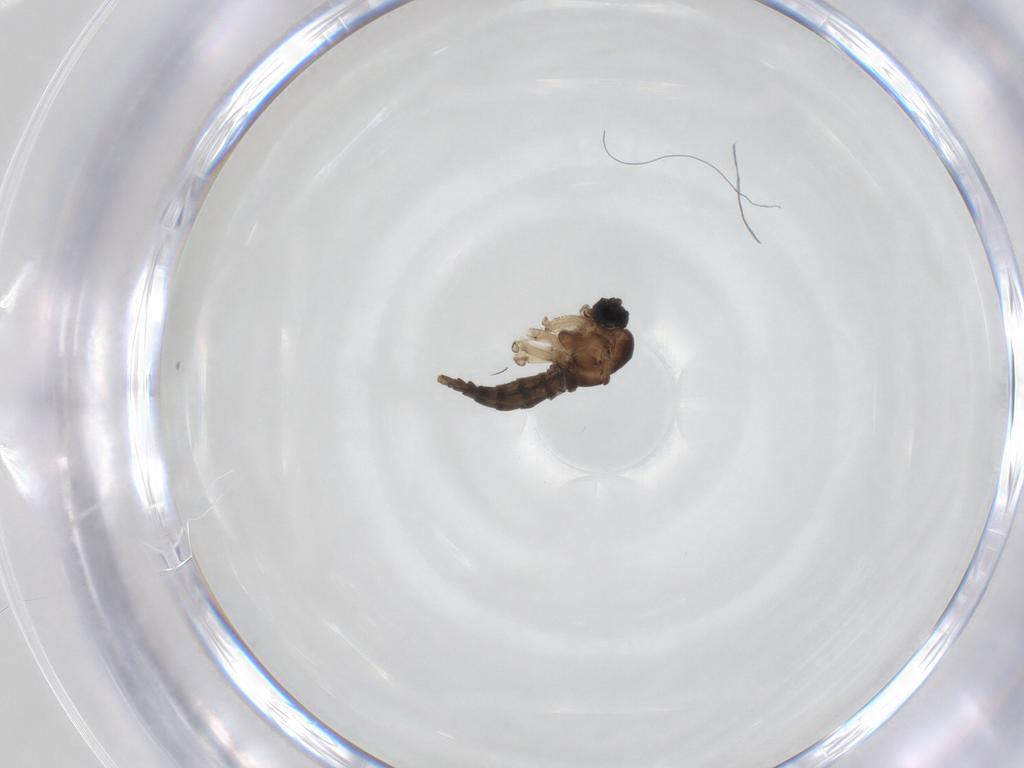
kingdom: Animalia
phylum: Arthropoda
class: Insecta
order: Diptera
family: Sciaridae
